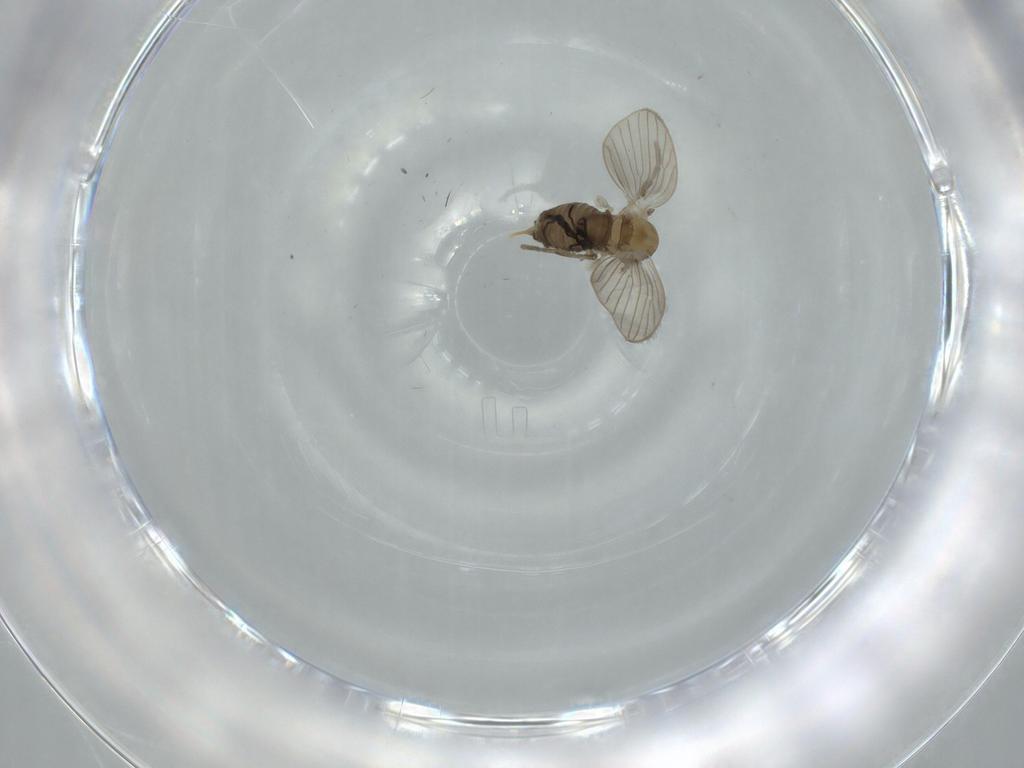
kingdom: Animalia
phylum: Arthropoda
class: Insecta
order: Diptera
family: Psychodidae
